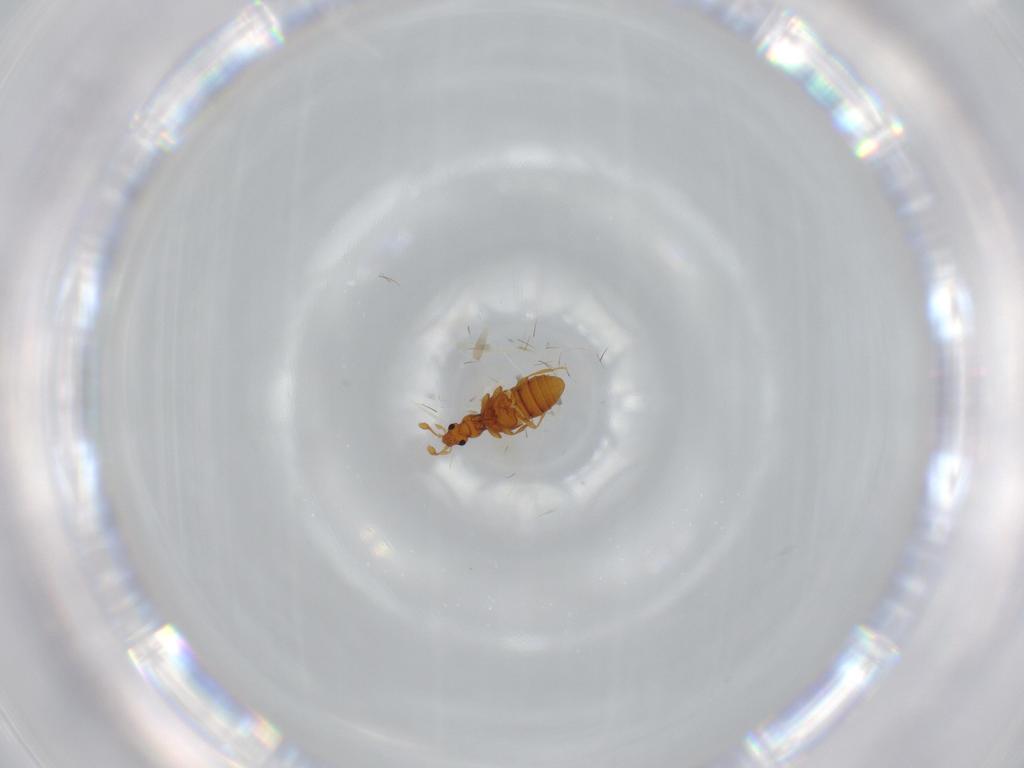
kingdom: Animalia
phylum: Arthropoda
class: Insecta
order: Coleoptera
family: Staphylinidae
